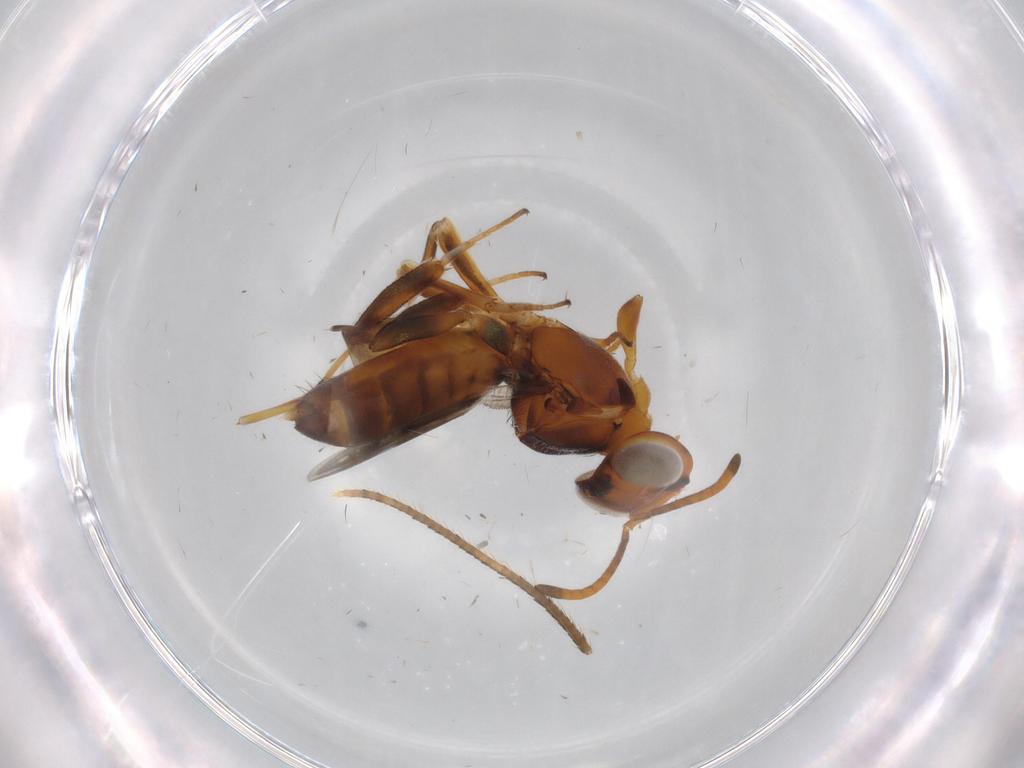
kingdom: Animalia
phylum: Arthropoda
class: Insecta
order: Hymenoptera
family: Eupelmidae
